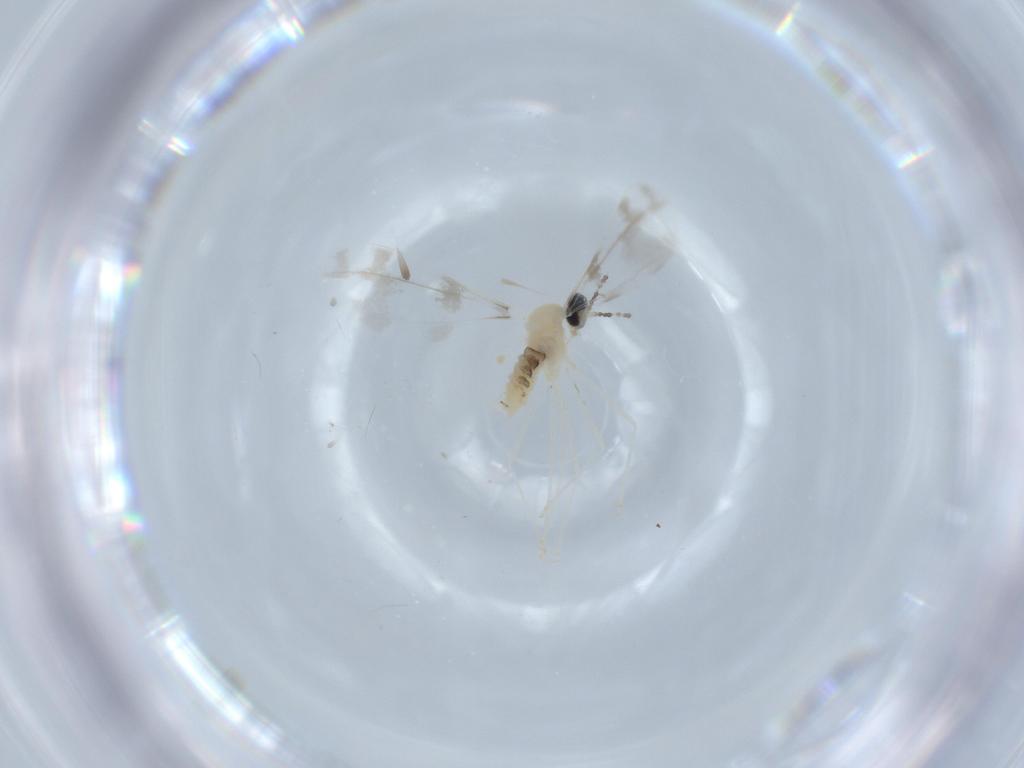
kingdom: Animalia
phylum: Arthropoda
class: Insecta
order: Diptera
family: Cecidomyiidae
